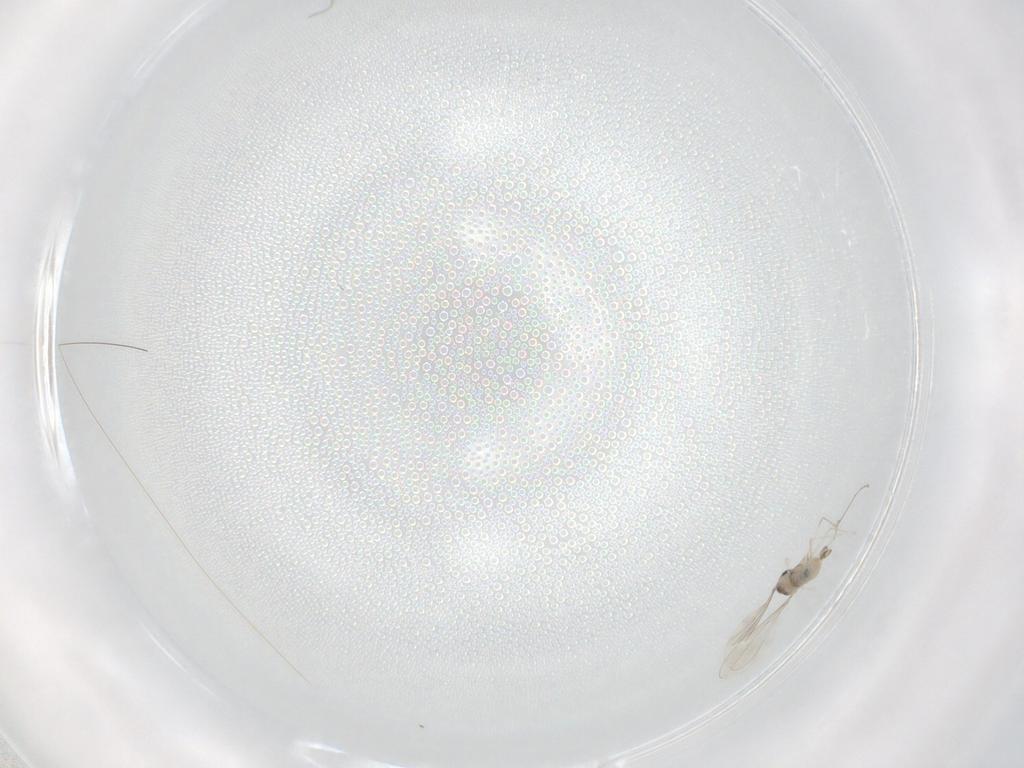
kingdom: Animalia
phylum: Arthropoda
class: Insecta
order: Diptera
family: Cecidomyiidae
